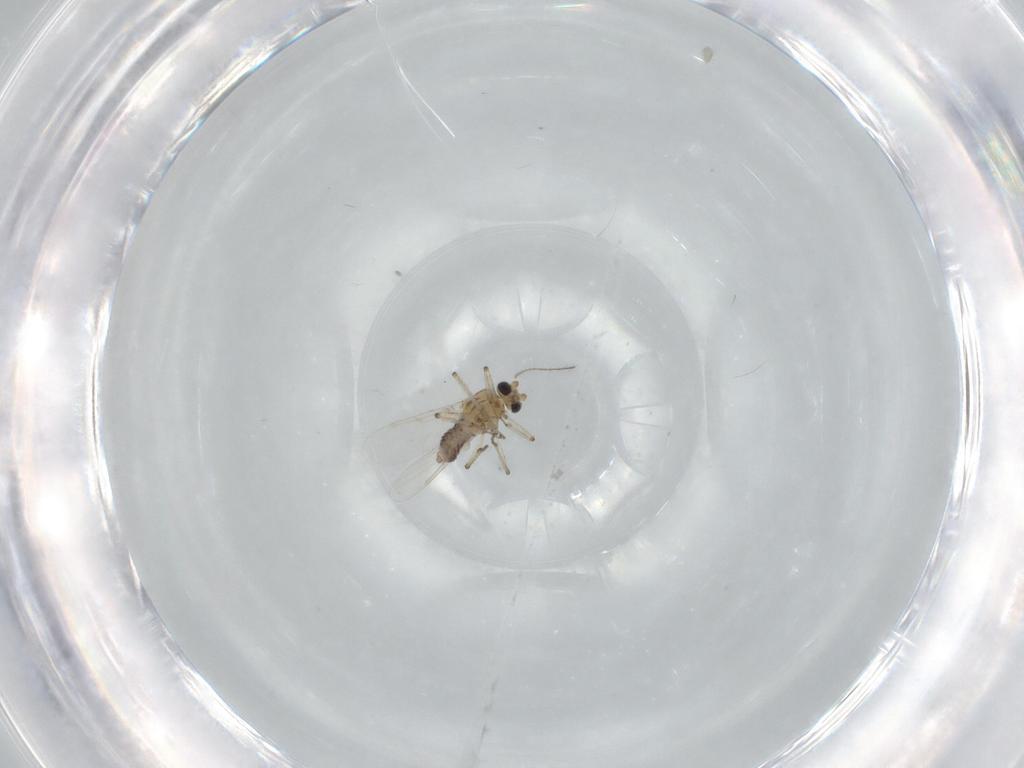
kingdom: Animalia
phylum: Arthropoda
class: Insecta
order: Diptera
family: Ceratopogonidae
